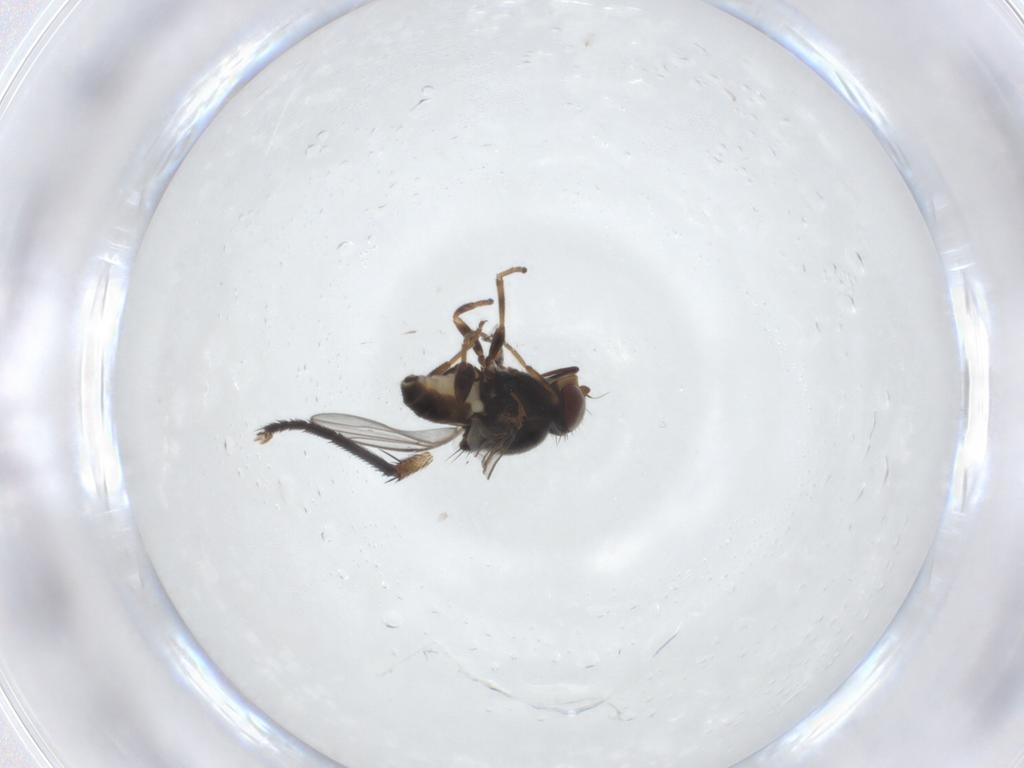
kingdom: Animalia
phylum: Arthropoda
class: Insecta
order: Diptera
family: Chloropidae
